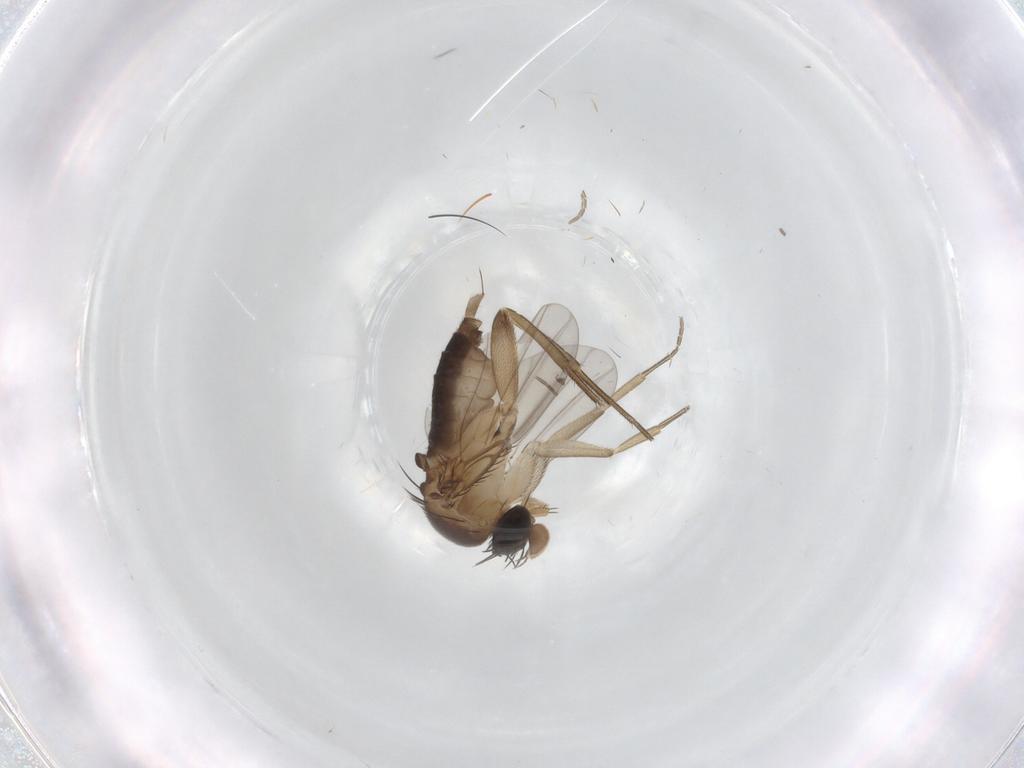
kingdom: Animalia
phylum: Arthropoda
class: Insecta
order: Diptera
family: Phoridae
